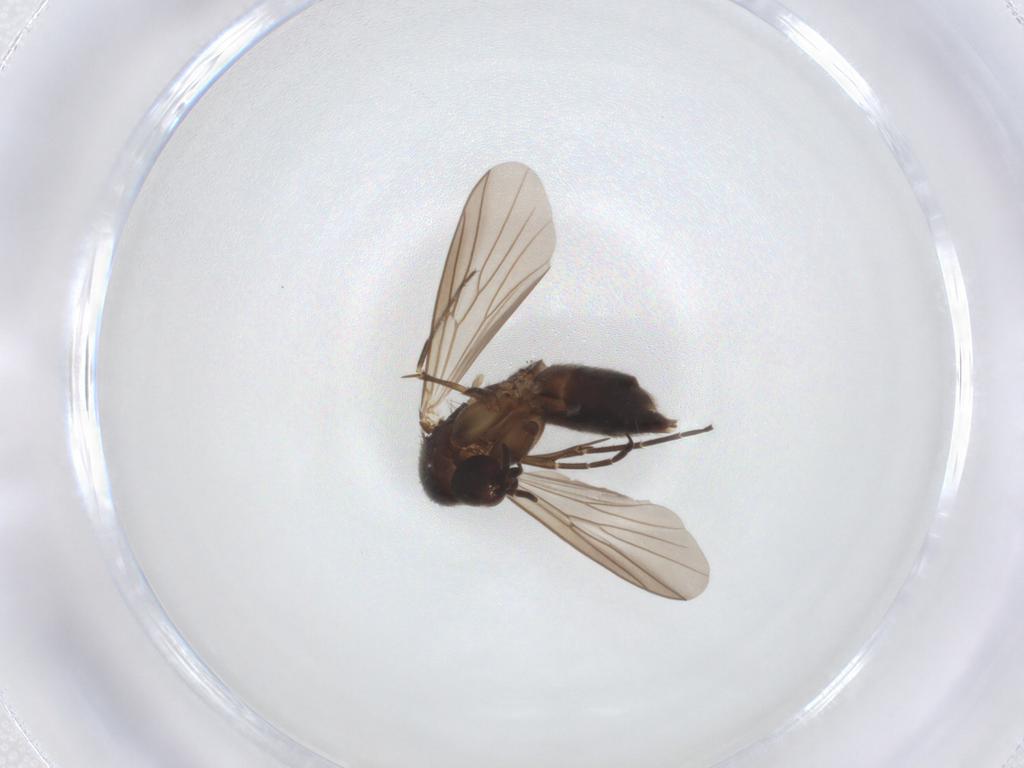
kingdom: Animalia
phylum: Arthropoda
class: Insecta
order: Diptera
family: Mycetophilidae
